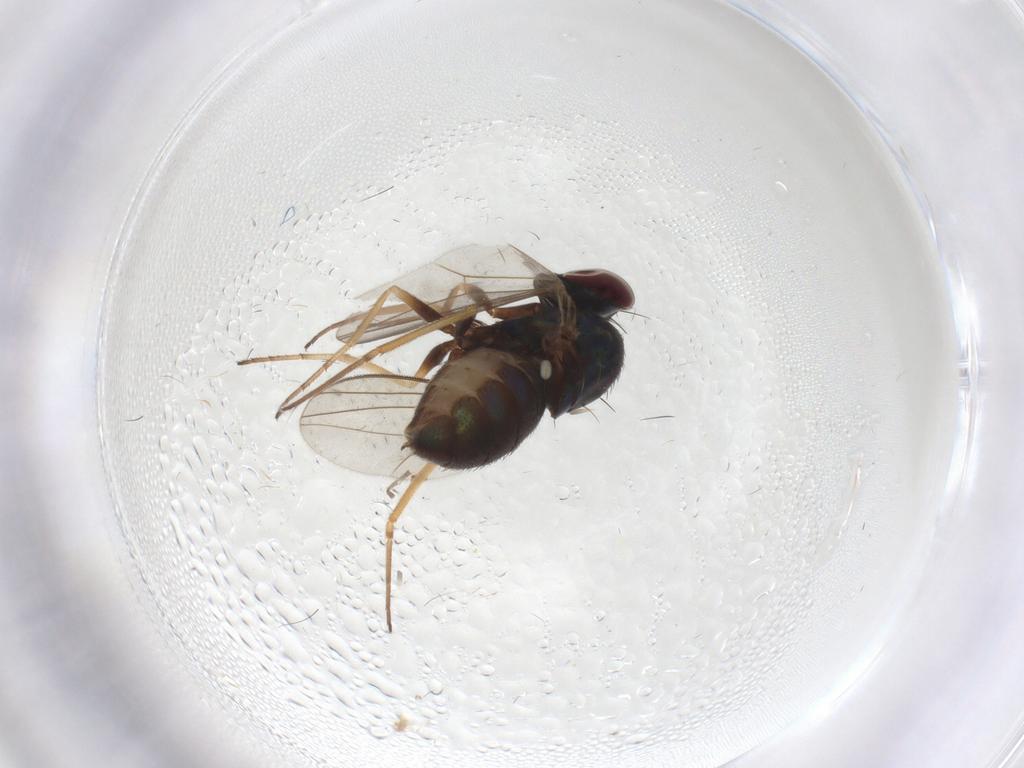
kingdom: Animalia
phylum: Arthropoda
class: Insecta
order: Diptera
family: Dolichopodidae
